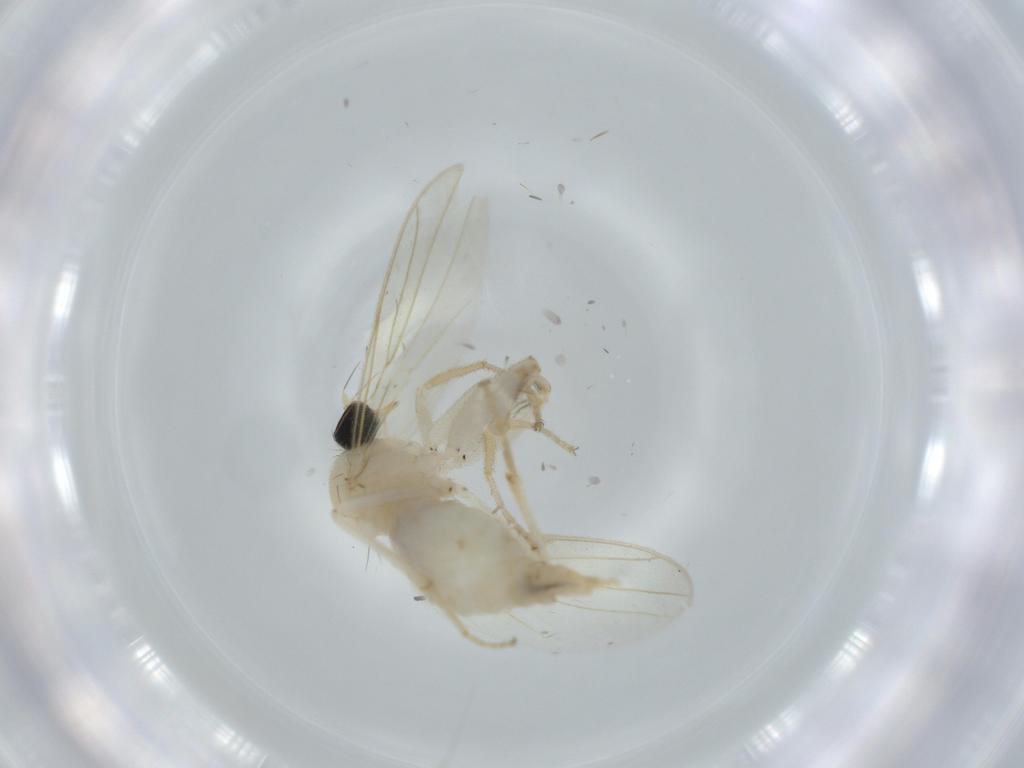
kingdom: Animalia
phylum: Arthropoda
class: Insecta
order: Diptera
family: Hybotidae
